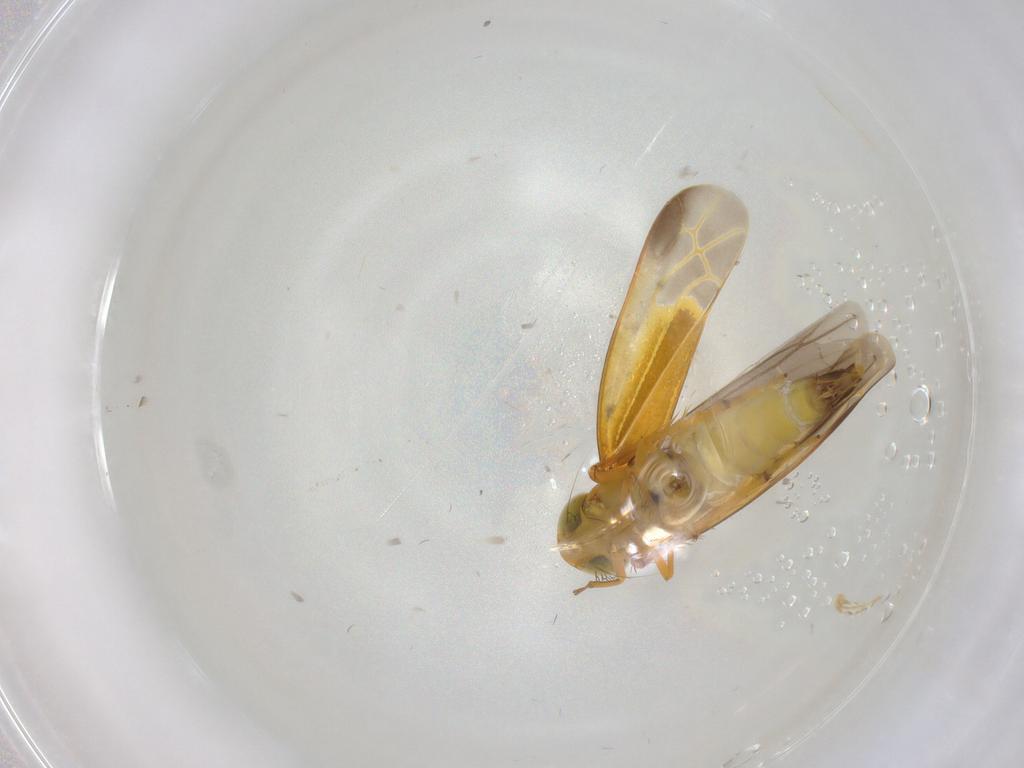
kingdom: Animalia
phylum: Arthropoda
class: Insecta
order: Hemiptera
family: Cicadellidae
